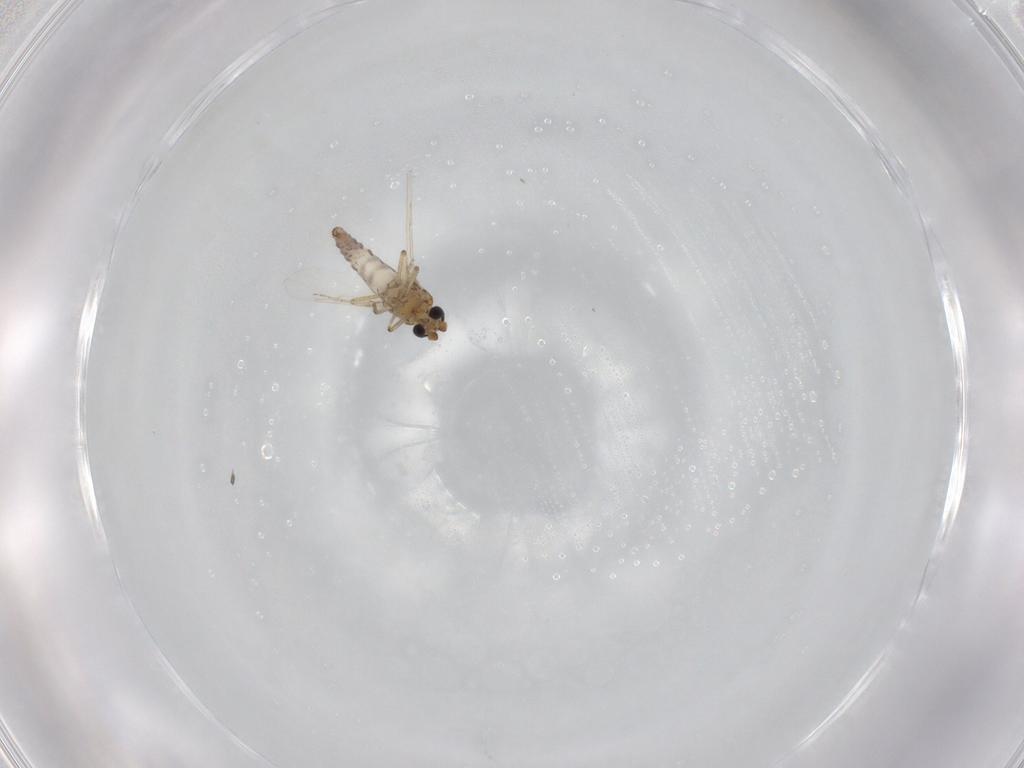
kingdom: Animalia
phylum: Arthropoda
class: Insecta
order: Diptera
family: Ceratopogonidae
